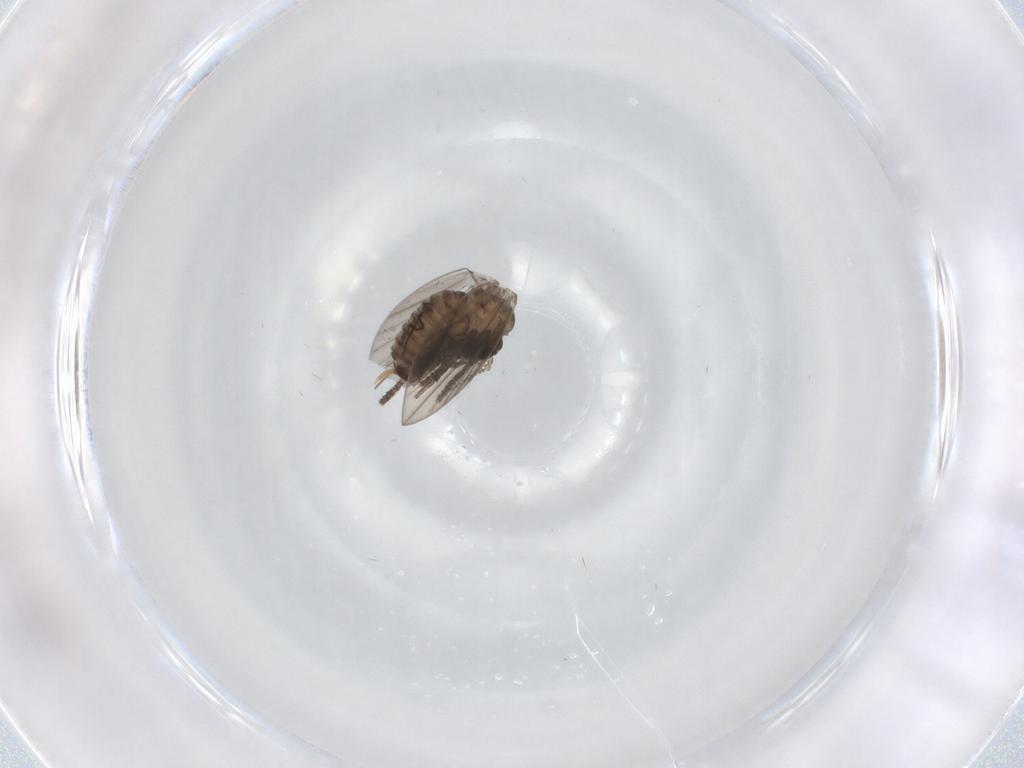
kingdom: Animalia
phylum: Arthropoda
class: Insecta
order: Diptera
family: Psychodidae
